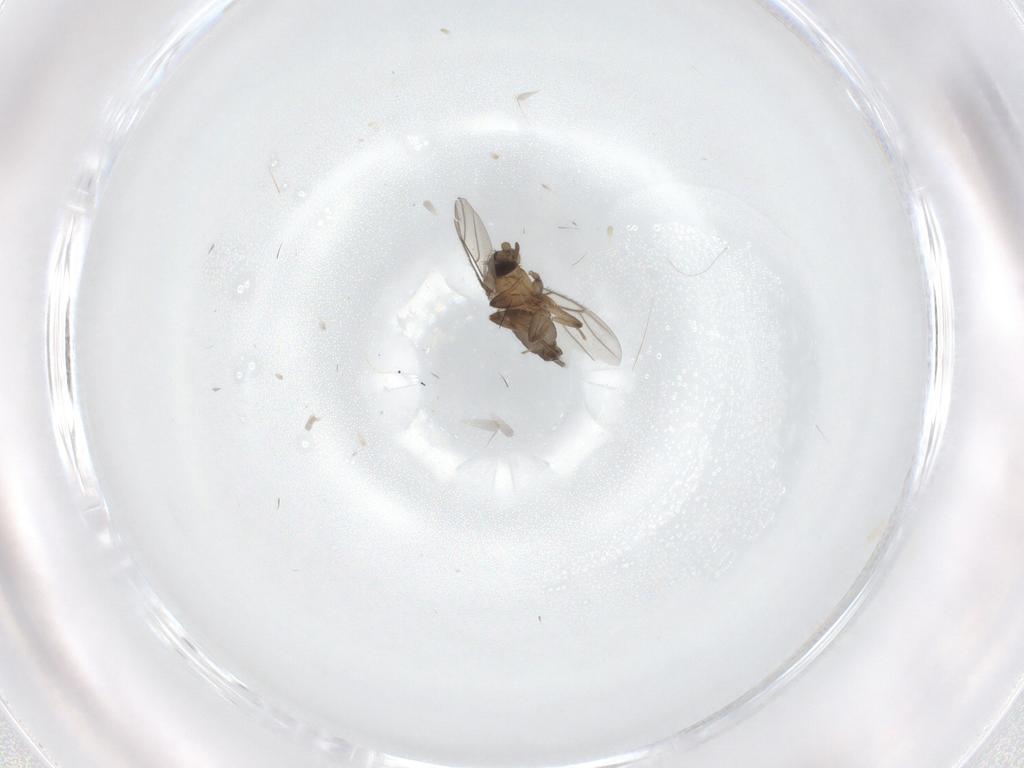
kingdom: Animalia
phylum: Arthropoda
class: Insecta
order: Diptera
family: Phoridae
